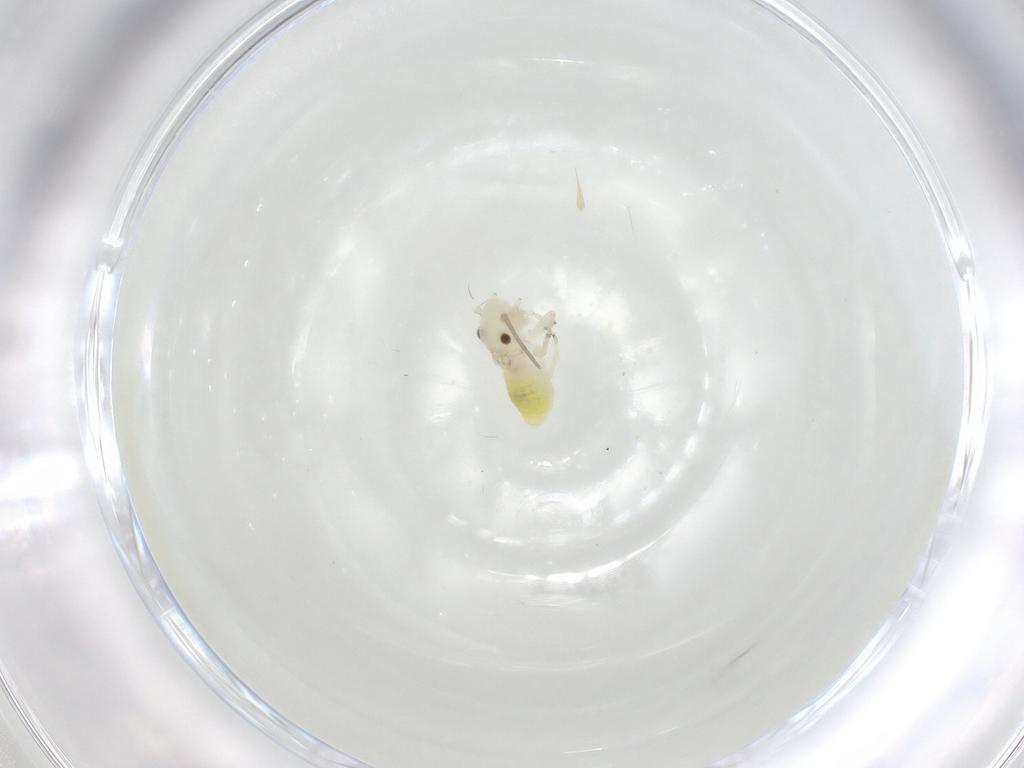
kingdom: Animalia
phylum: Arthropoda
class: Insecta
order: Psocodea
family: Caeciliusidae
